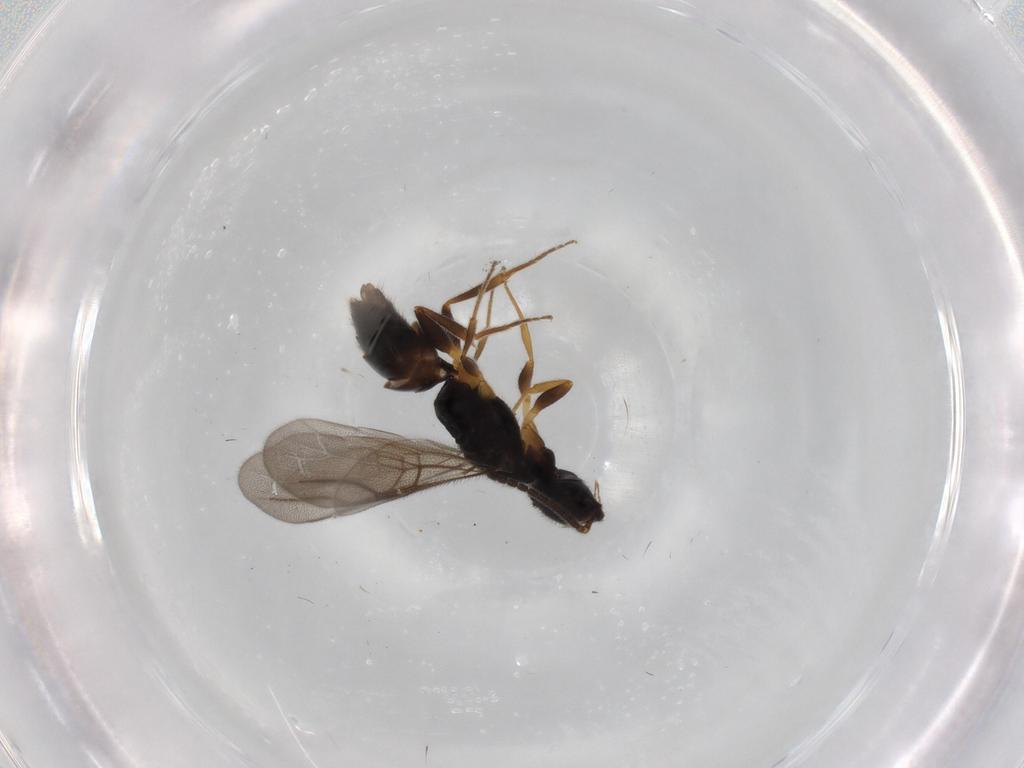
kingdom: Animalia
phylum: Arthropoda
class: Insecta
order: Hymenoptera
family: Bethylidae
